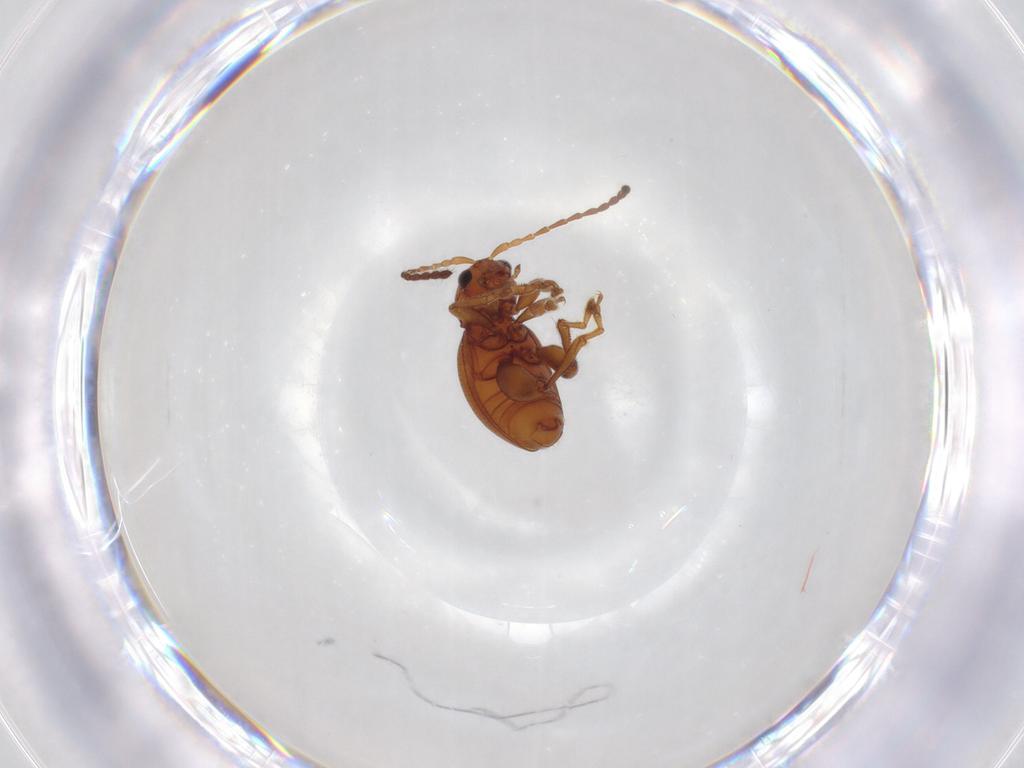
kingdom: Animalia
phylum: Arthropoda
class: Insecta
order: Coleoptera
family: Chrysomelidae
